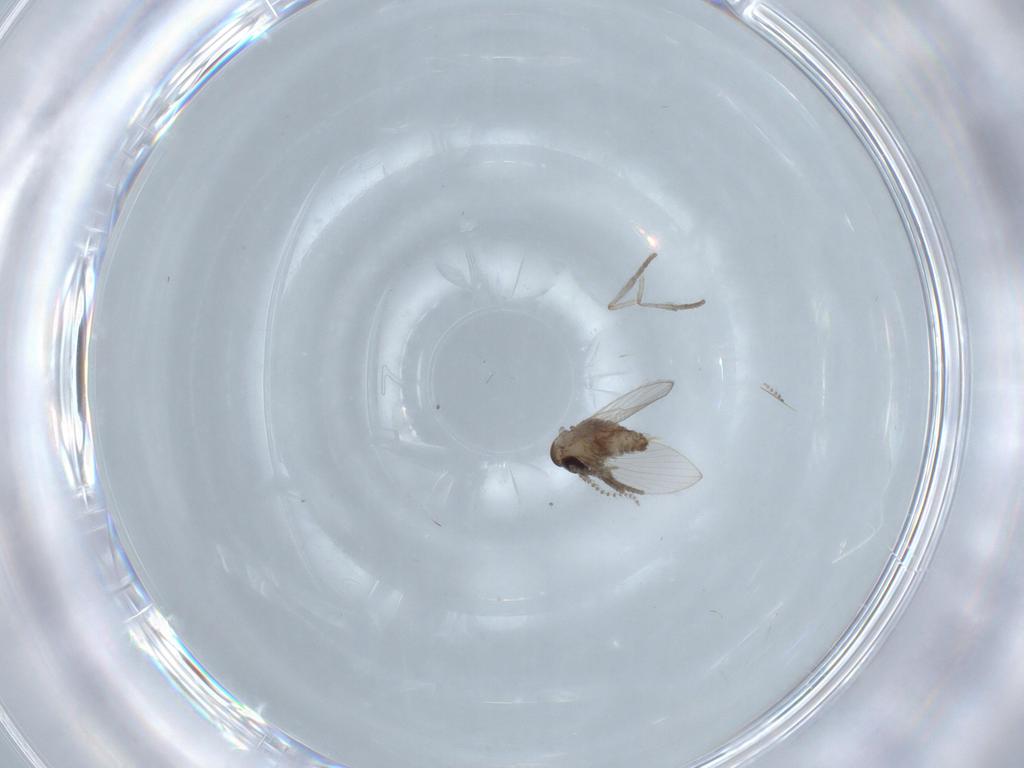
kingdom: Animalia
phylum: Arthropoda
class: Insecta
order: Diptera
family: Psychodidae
